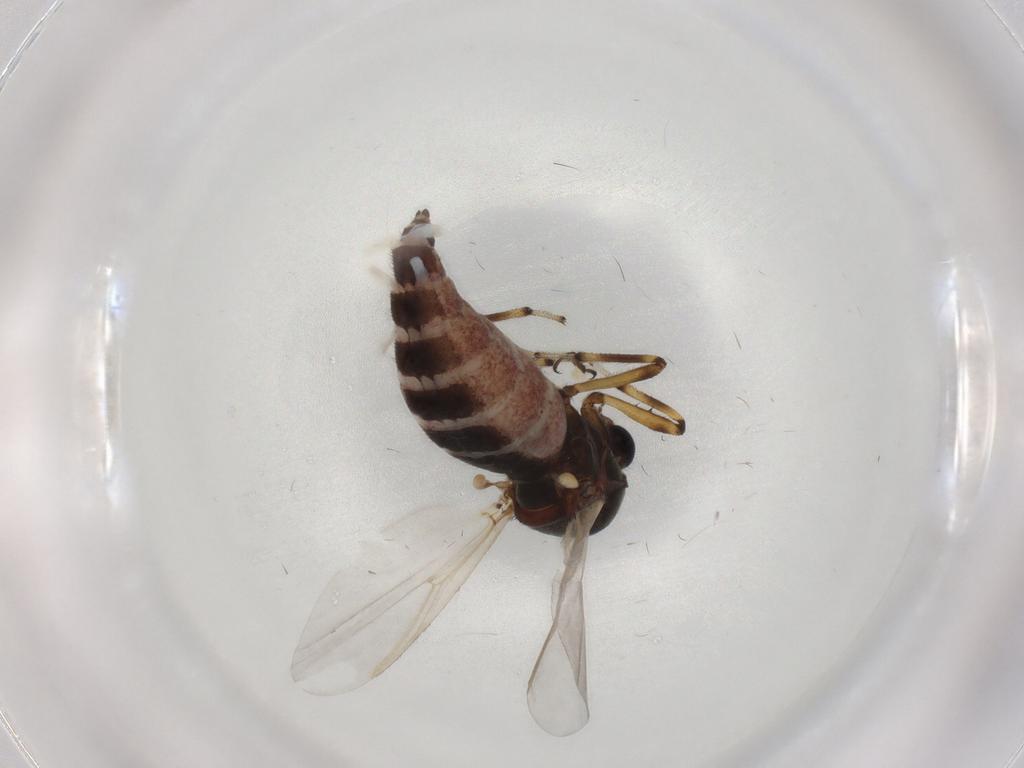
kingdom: Animalia
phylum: Arthropoda
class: Insecta
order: Diptera
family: Chironomidae
